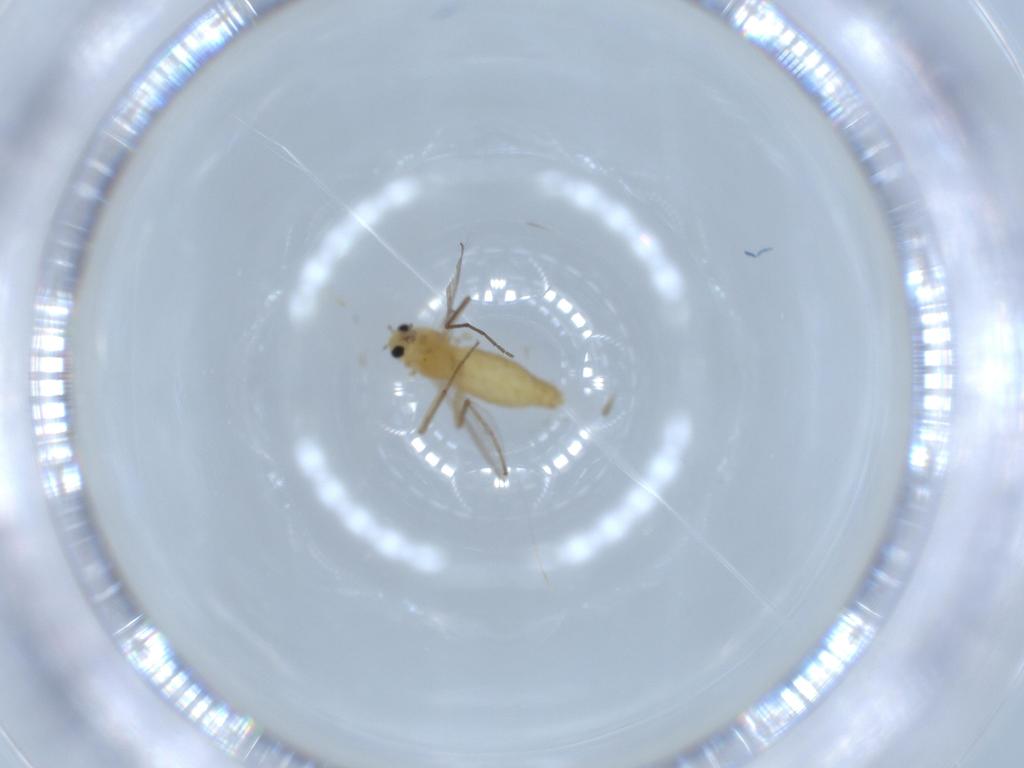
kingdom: Animalia
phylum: Arthropoda
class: Insecta
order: Diptera
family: Chironomidae
